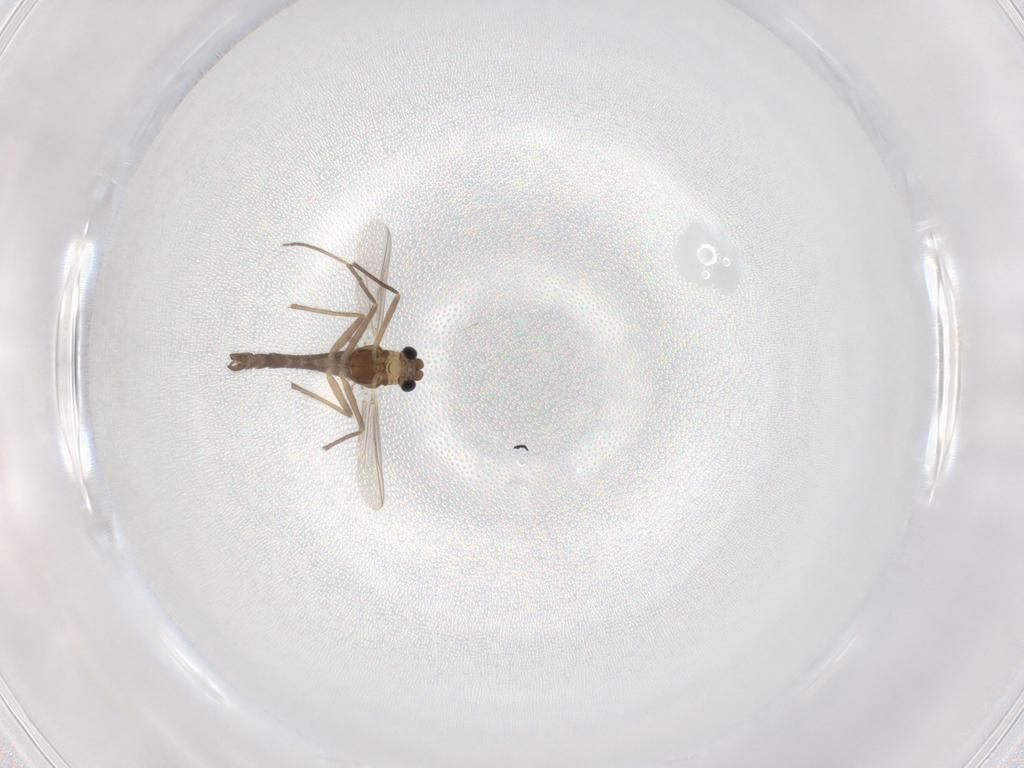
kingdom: Animalia
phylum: Arthropoda
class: Insecta
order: Diptera
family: Chironomidae
